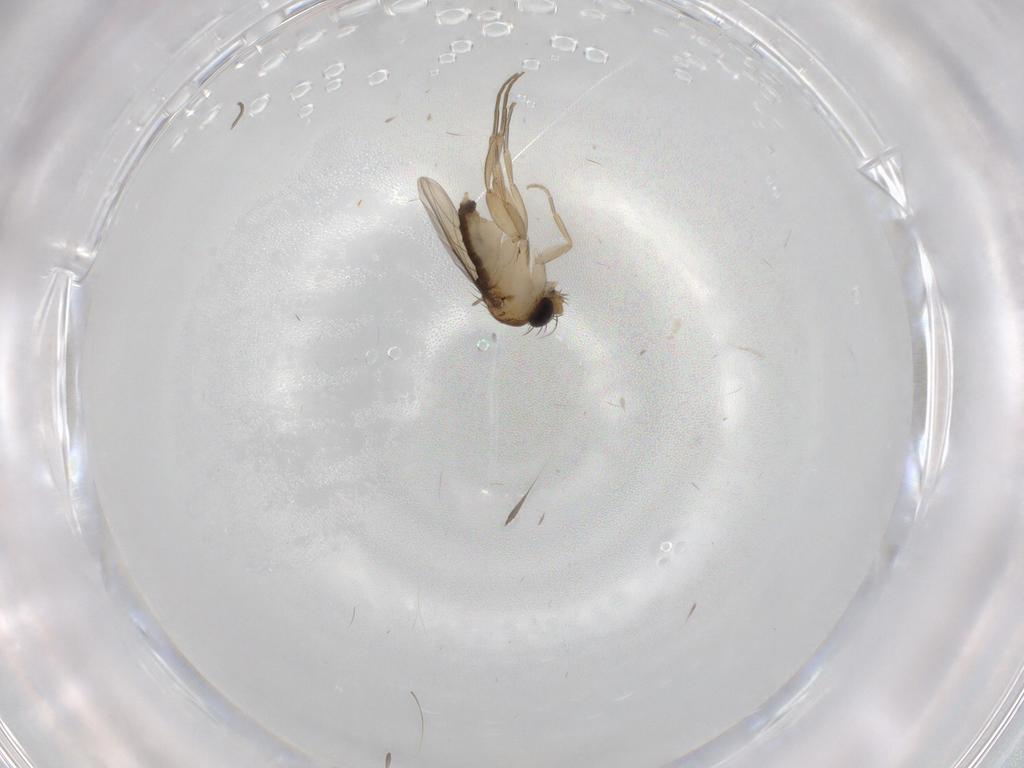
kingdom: Animalia
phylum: Arthropoda
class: Insecta
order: Diptera
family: Phoridae
